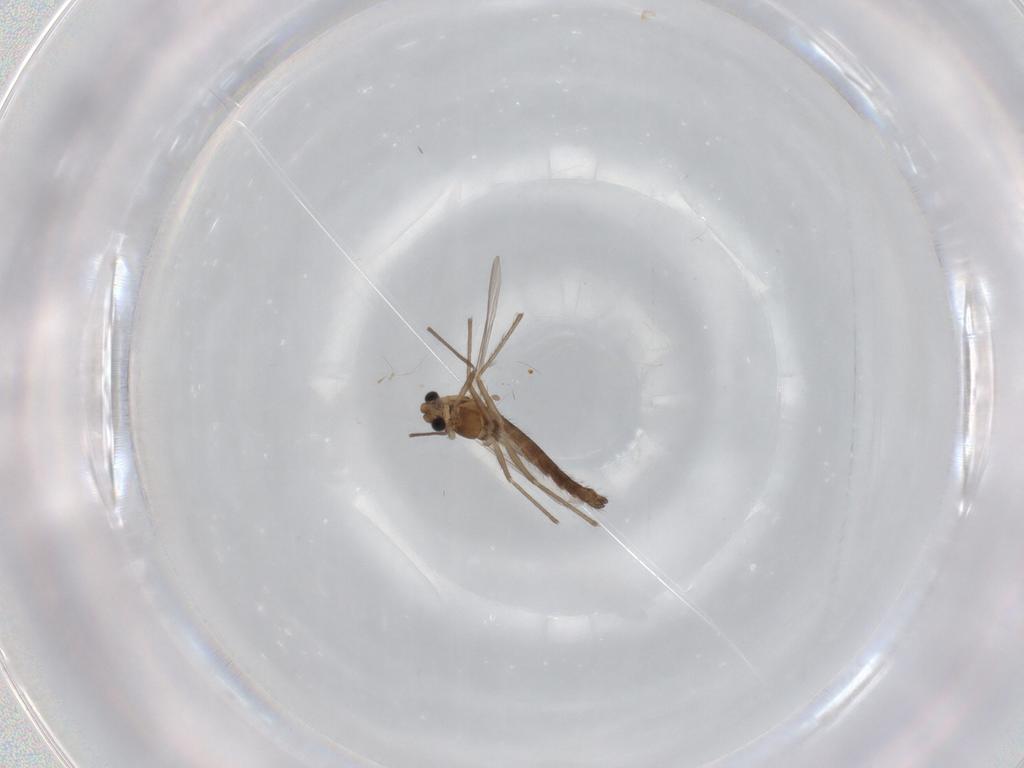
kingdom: Animalia
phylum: Arthropoda
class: Insecta
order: Diptera
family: Chironomidae
